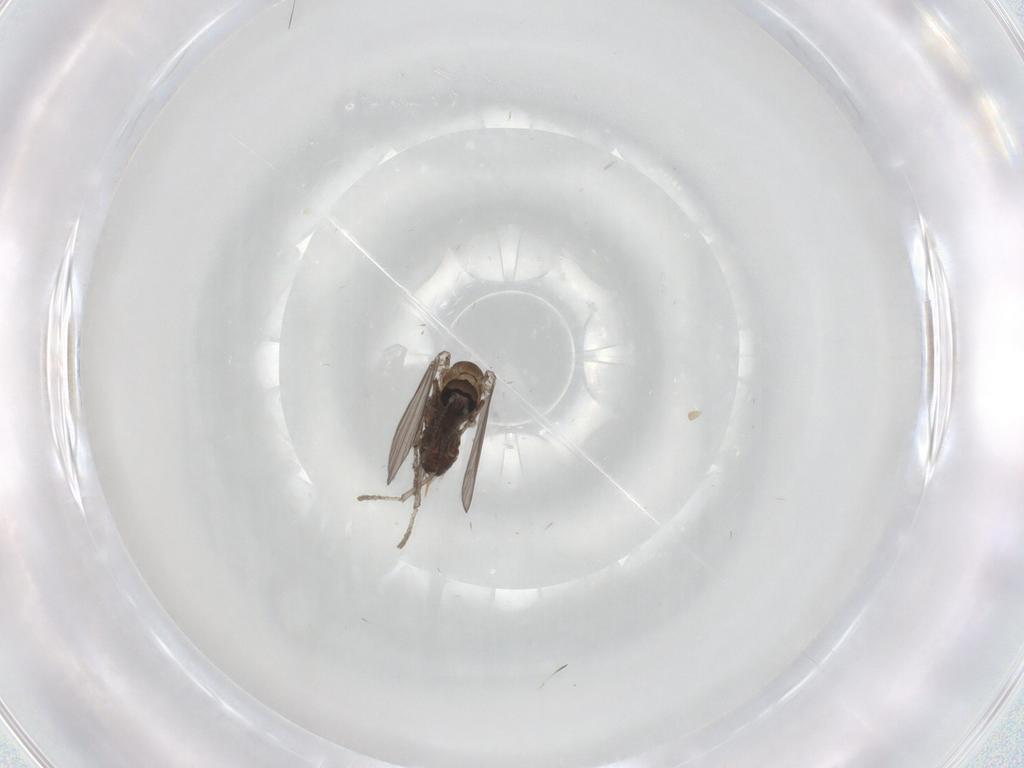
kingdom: Animalia
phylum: Arthropoda
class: Insecta
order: Diptera
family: Psychodidae
